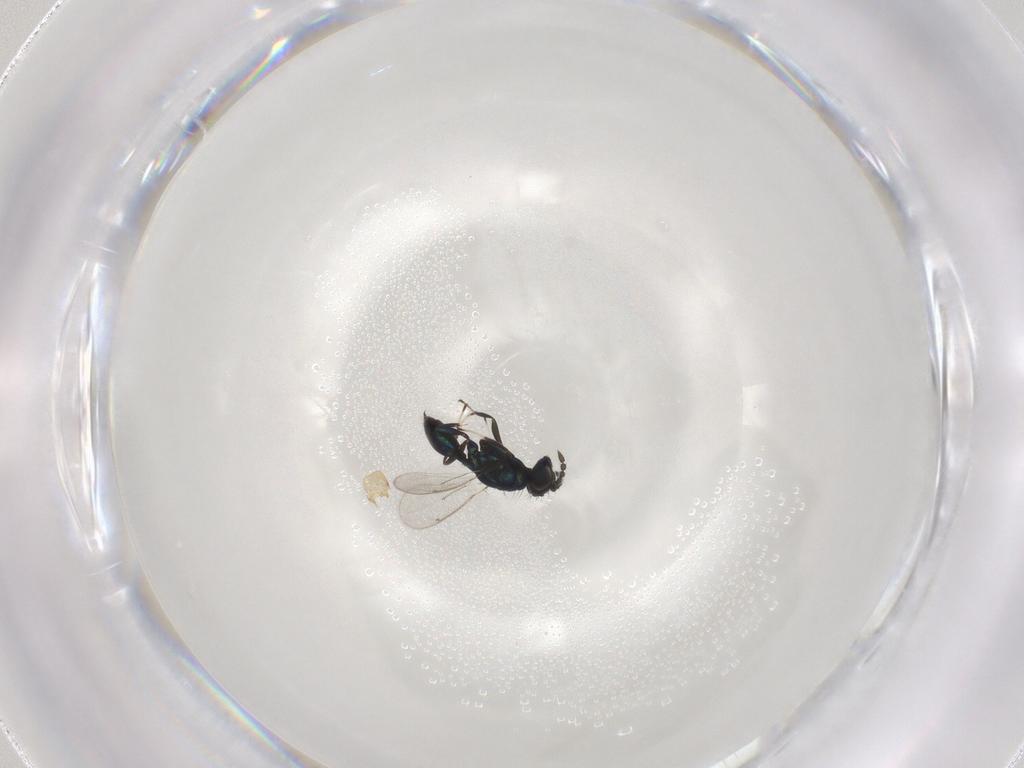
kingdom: Animalia
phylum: Arthropoda
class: Insecta
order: Hymenoptera
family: Eulophidae
